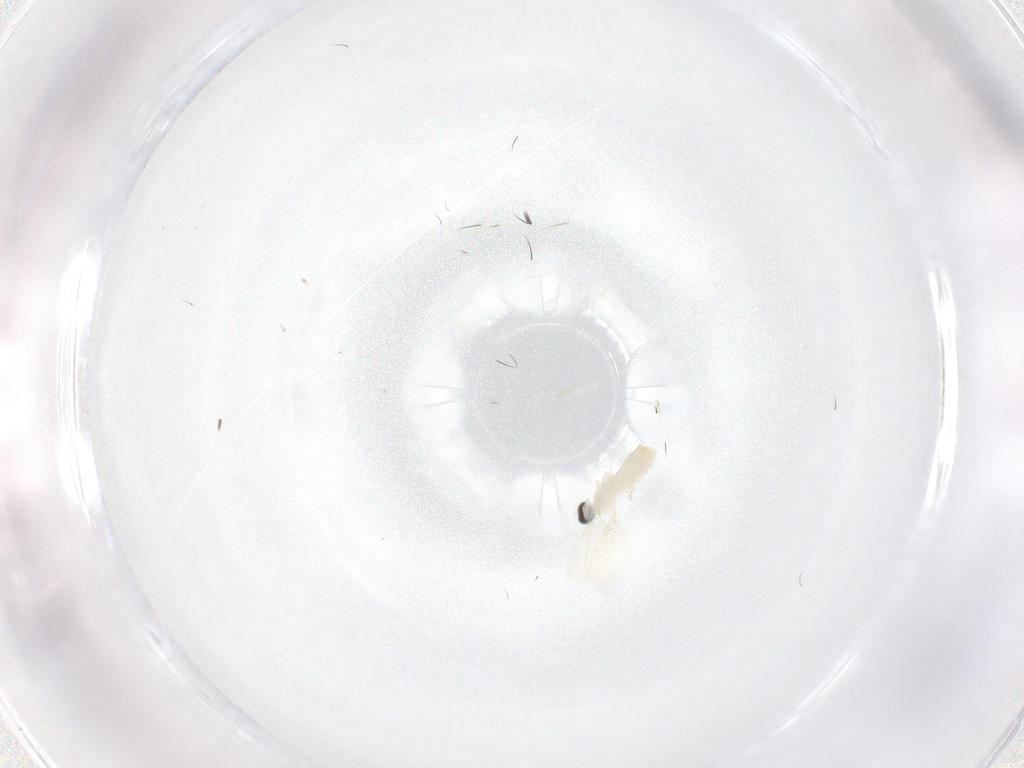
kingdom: Animalia
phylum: Arthropoda
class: Insecta
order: Diptera
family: Cecidomyiidae
